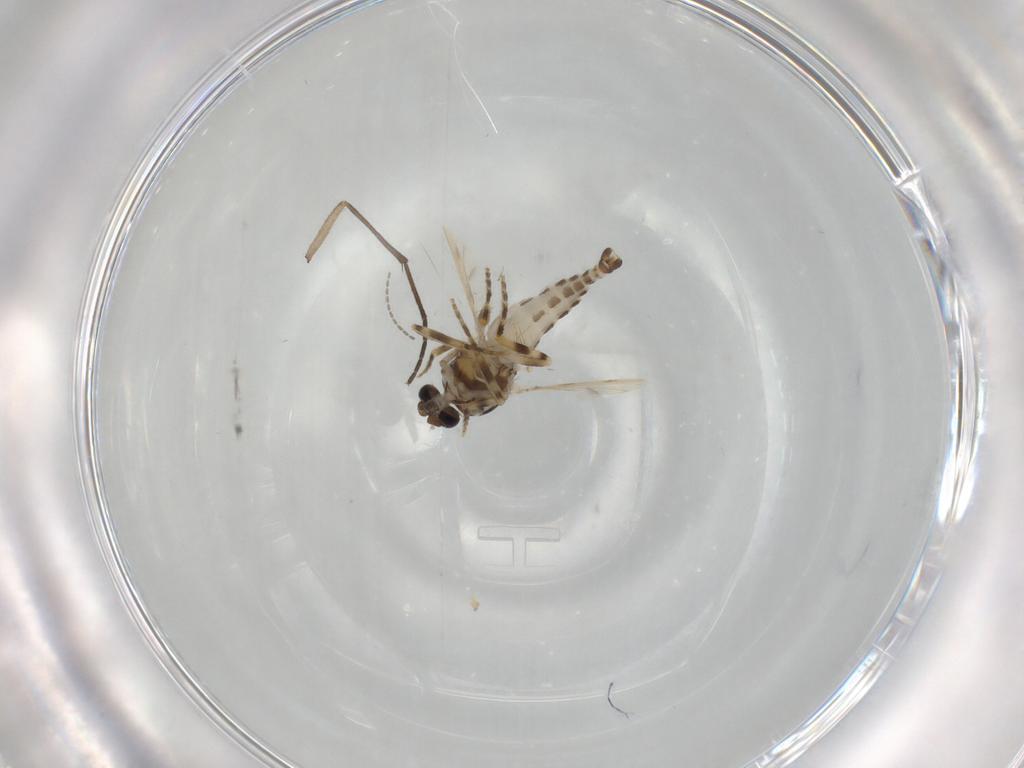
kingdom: Animalia
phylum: Arthropoda
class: Insecta
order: Diptera
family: Ceratopogonidae
